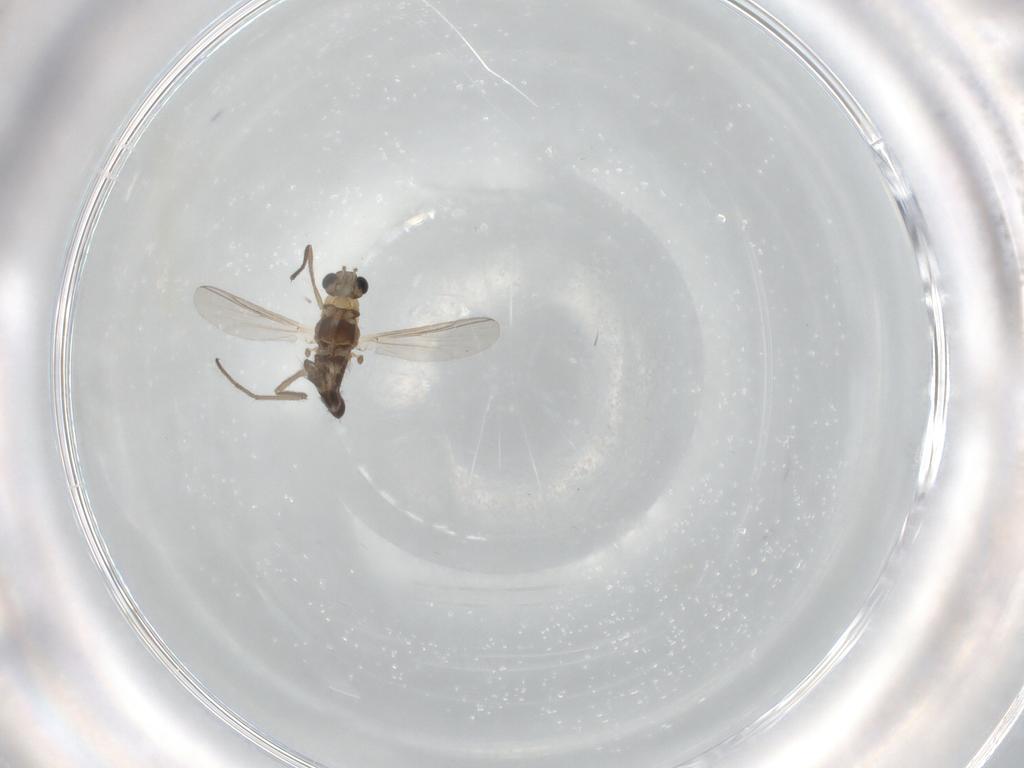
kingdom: Animalia
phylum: Arthropoda
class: Insecta
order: Diptera
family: Chironomidae
